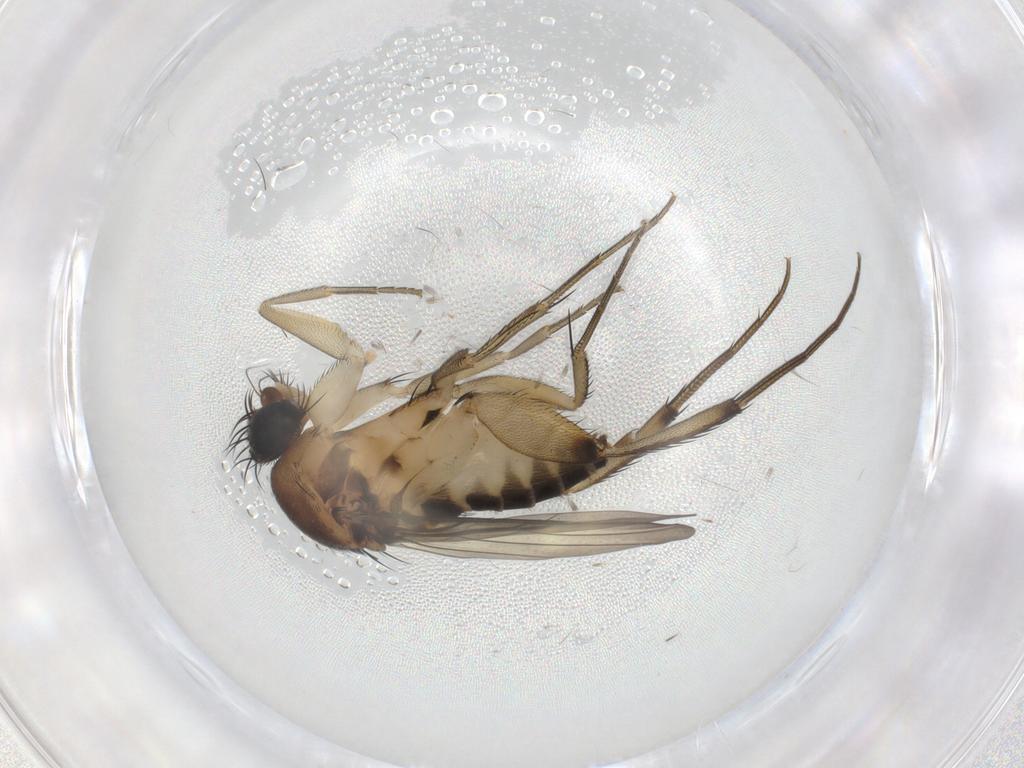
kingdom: Animalia
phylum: Arthropoda
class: Insecta
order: Diptera
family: Phoridae
